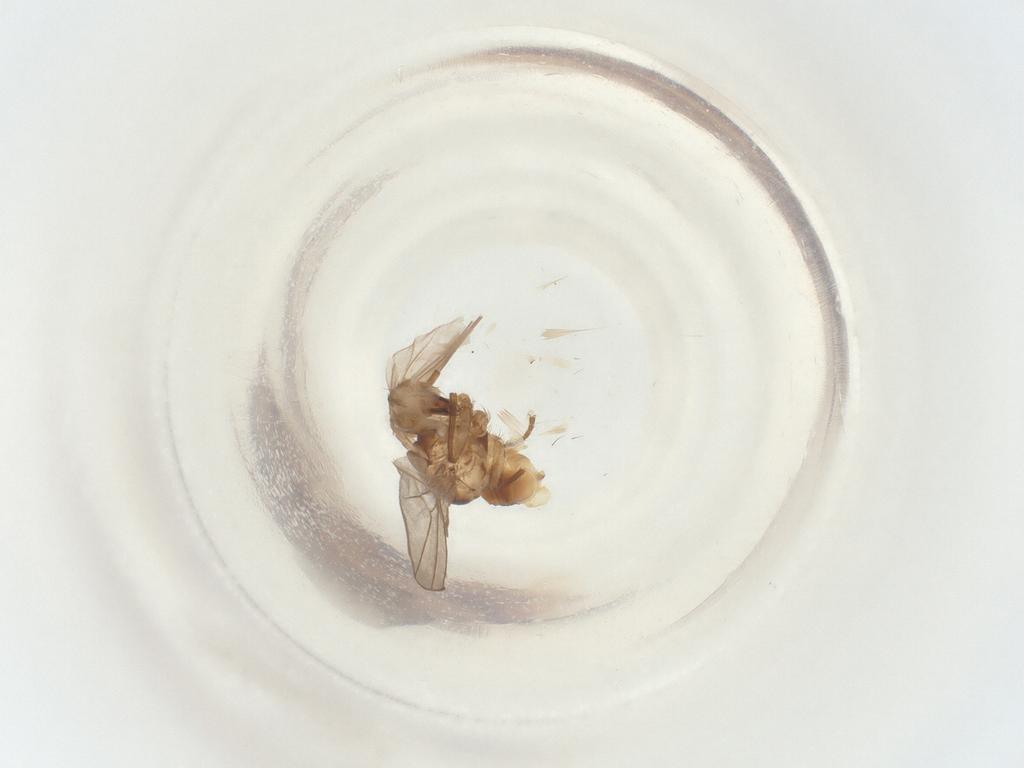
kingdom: Animalia
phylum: Arthropoda
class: Insecta
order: Diptera
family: Agromyzidae
